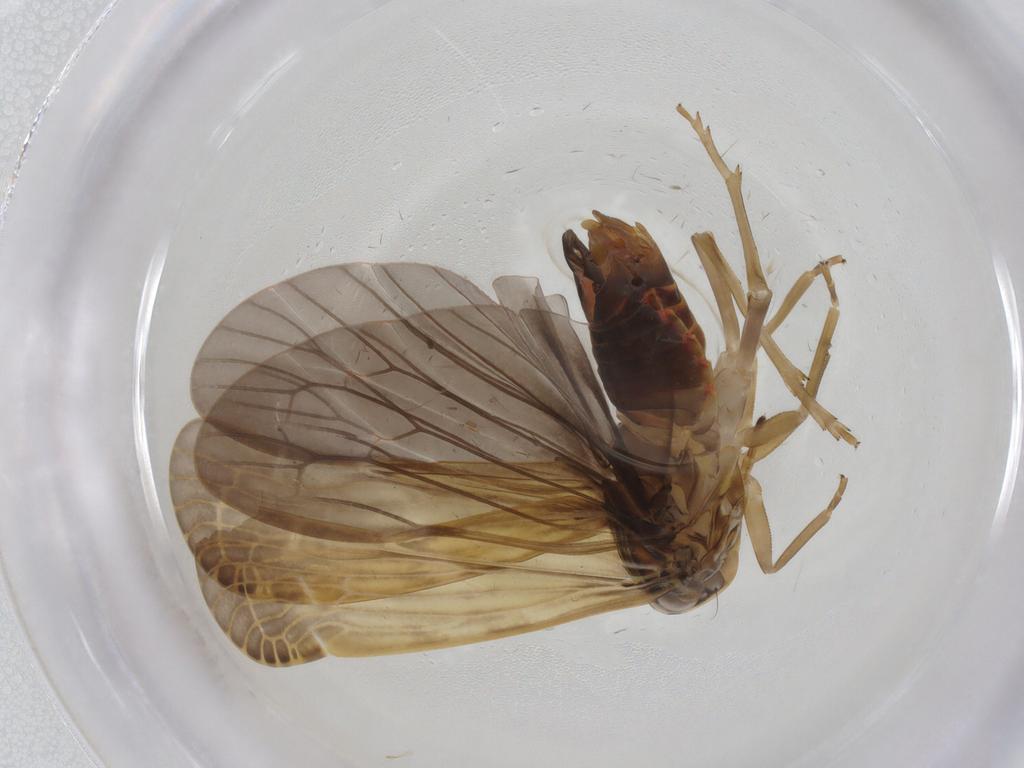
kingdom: Animalia
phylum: Arthropoda
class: Insecta
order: Hemiptera
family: Achilidae
